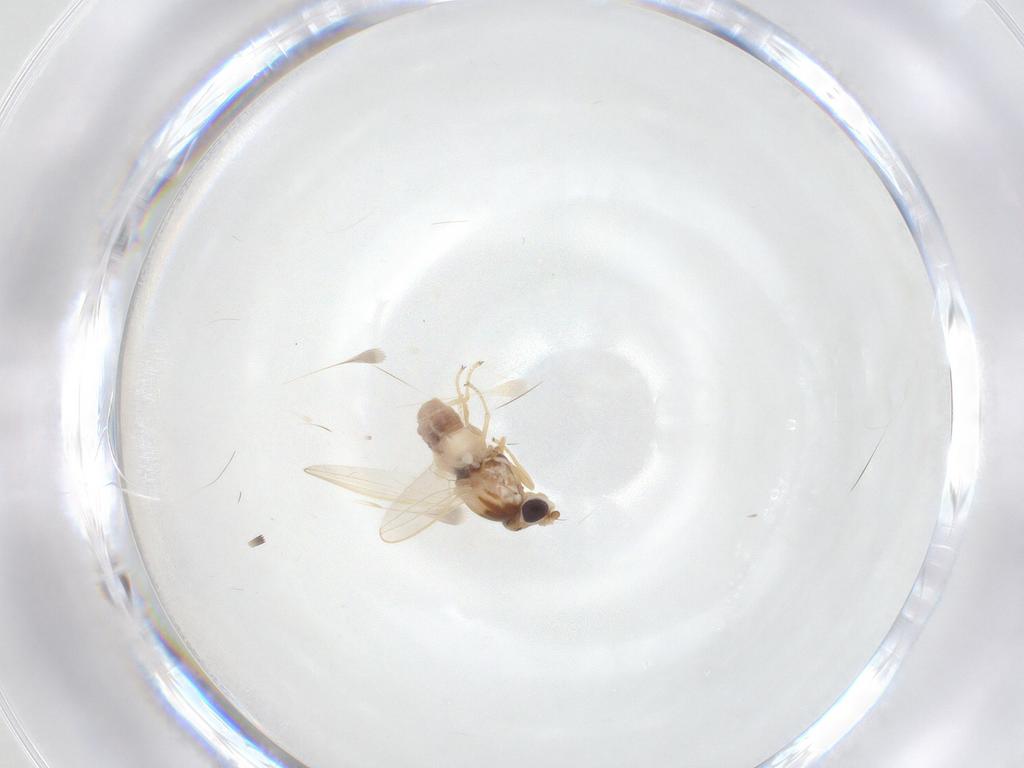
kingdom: Animalia
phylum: Arthropoda
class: Insecta
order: Diptera
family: Chloropidae
